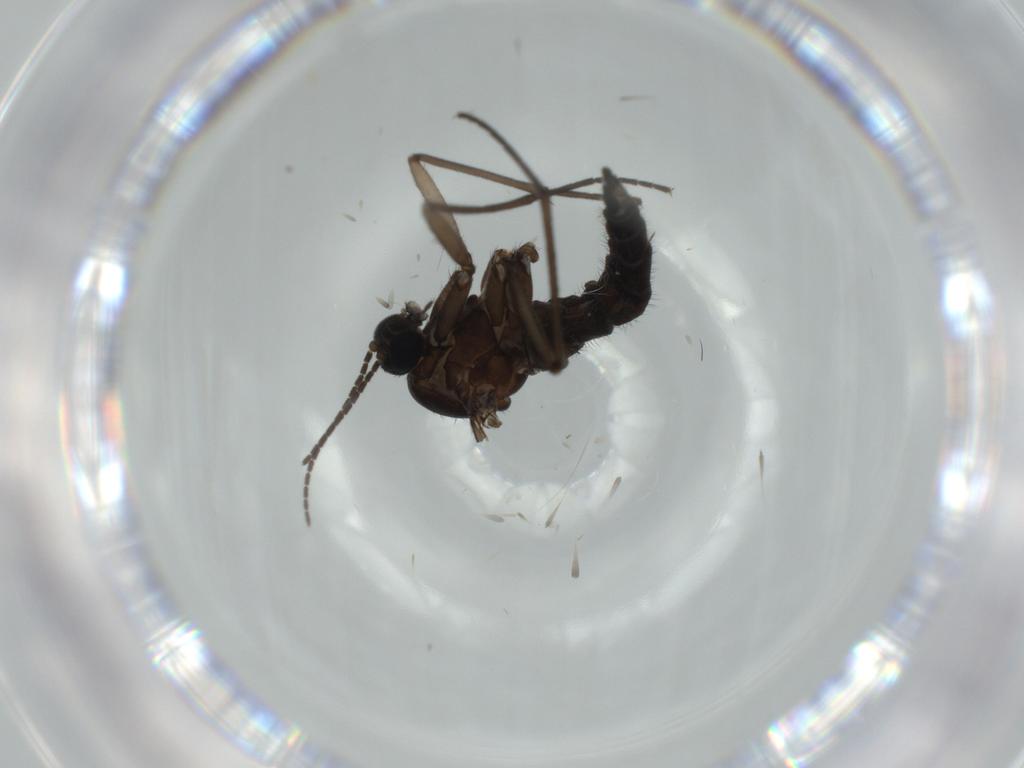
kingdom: Animalia
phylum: Arthropoda
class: Insecta
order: Diptera
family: Sciaridae
